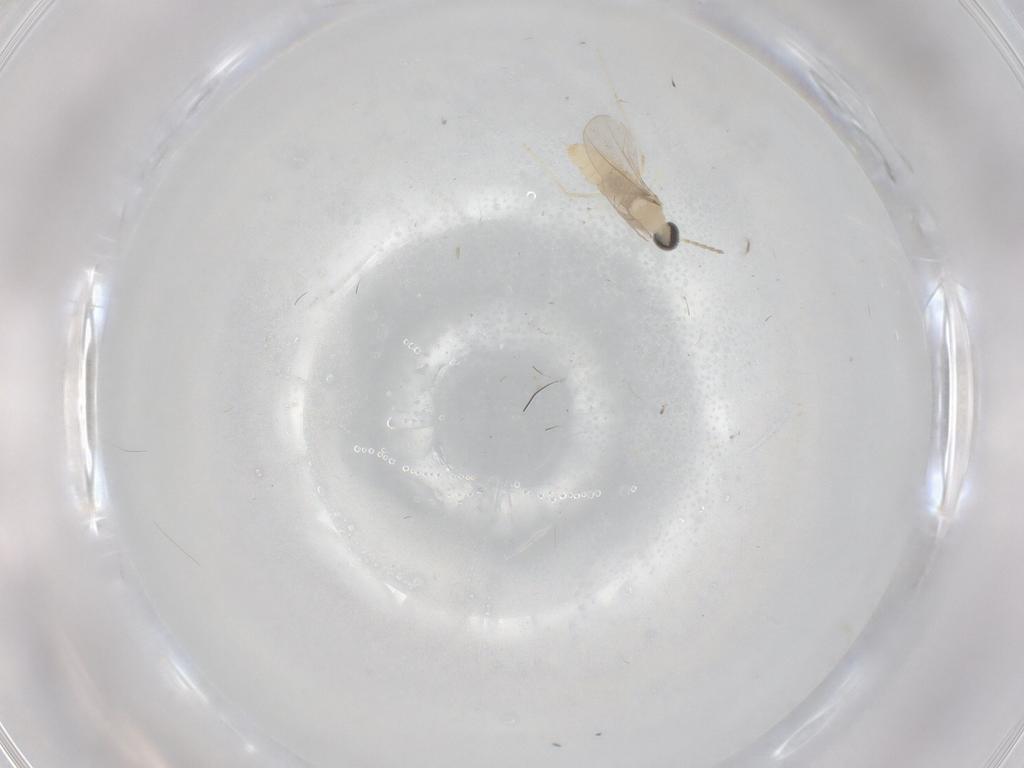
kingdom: Animalia
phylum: Arthropoda
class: Insecta
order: Diptera
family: Cecidomyiidae
